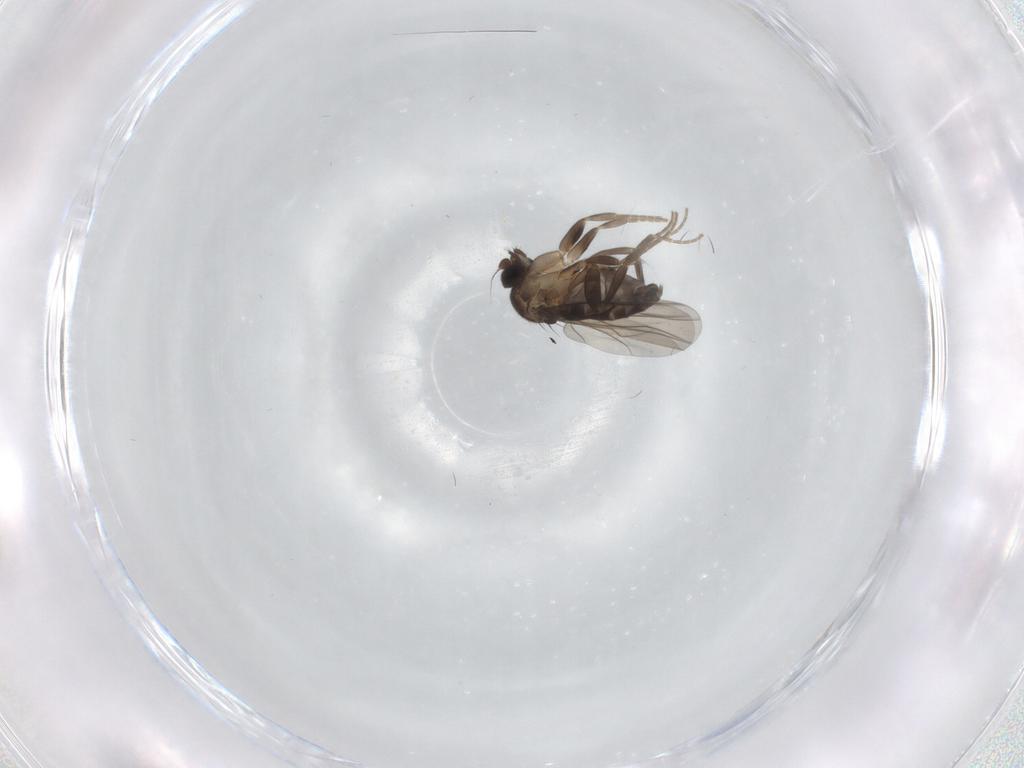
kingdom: Animalia
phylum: Arthropoda
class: Insecta
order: Diptera
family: Phoridae
